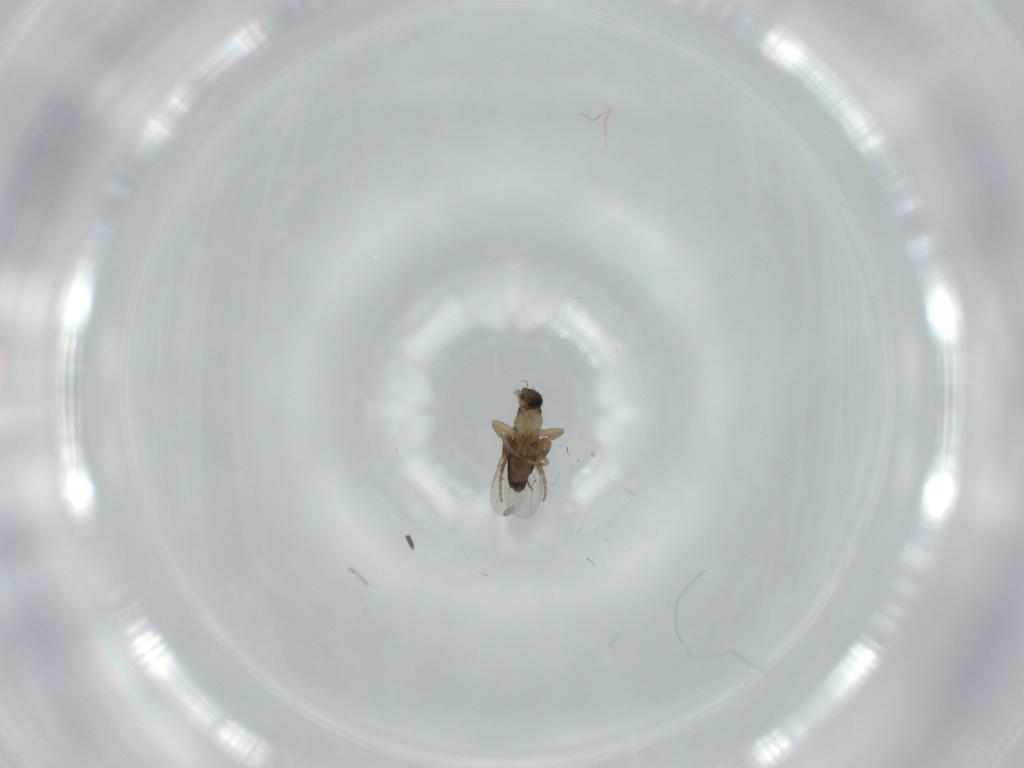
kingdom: Animalia
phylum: Arthropoda
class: Insecta
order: Diptera
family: Phoridae
